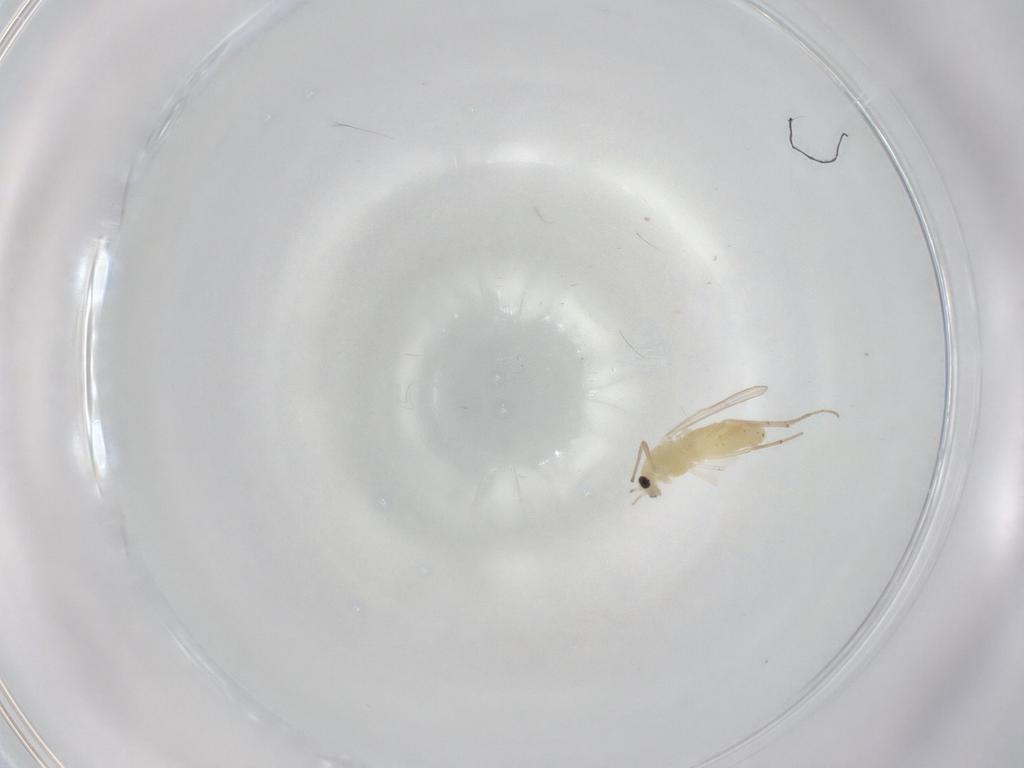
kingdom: Animalia
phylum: Arthropoda
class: Insecta
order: Diptera
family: Chironomidae
